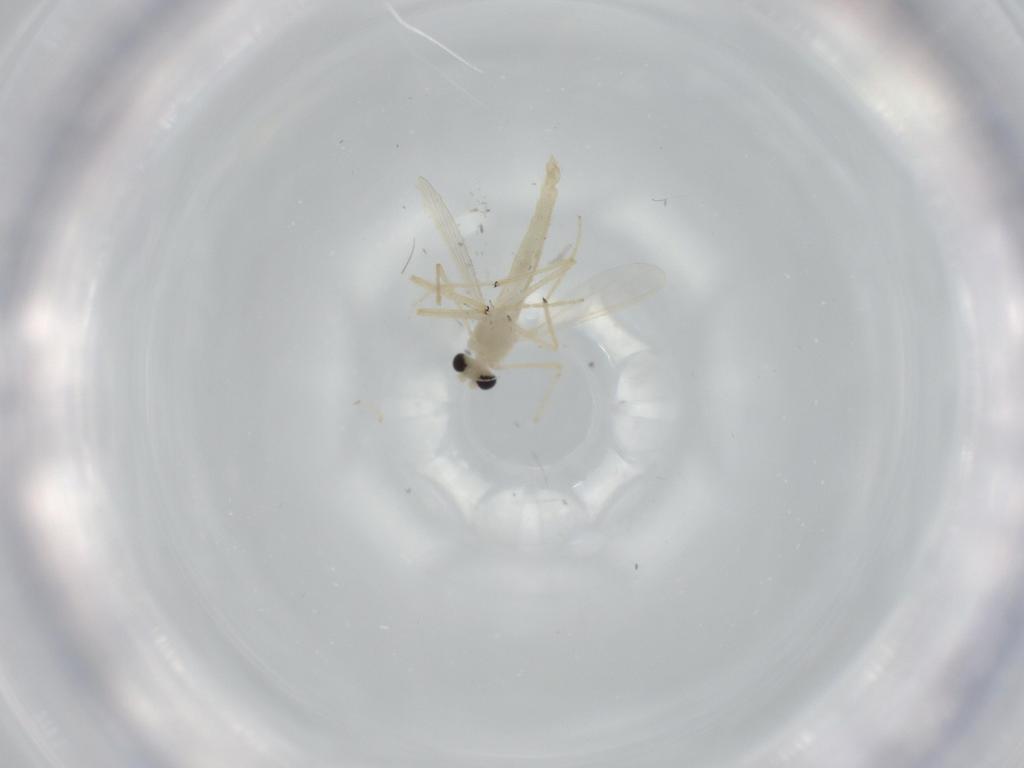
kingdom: Animalia
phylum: Arthropoda
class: Insecta
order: Diptera
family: Chironomidae
